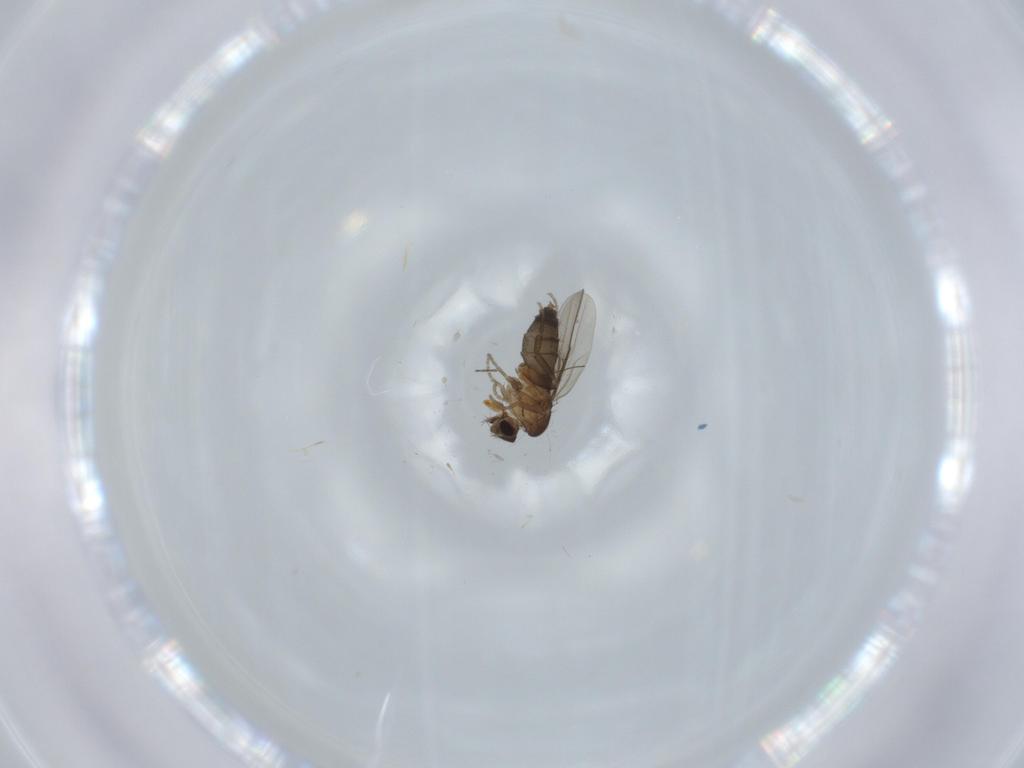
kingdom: Animalia
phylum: Arthropoda
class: Insecta
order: Diptera
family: Phoridae
